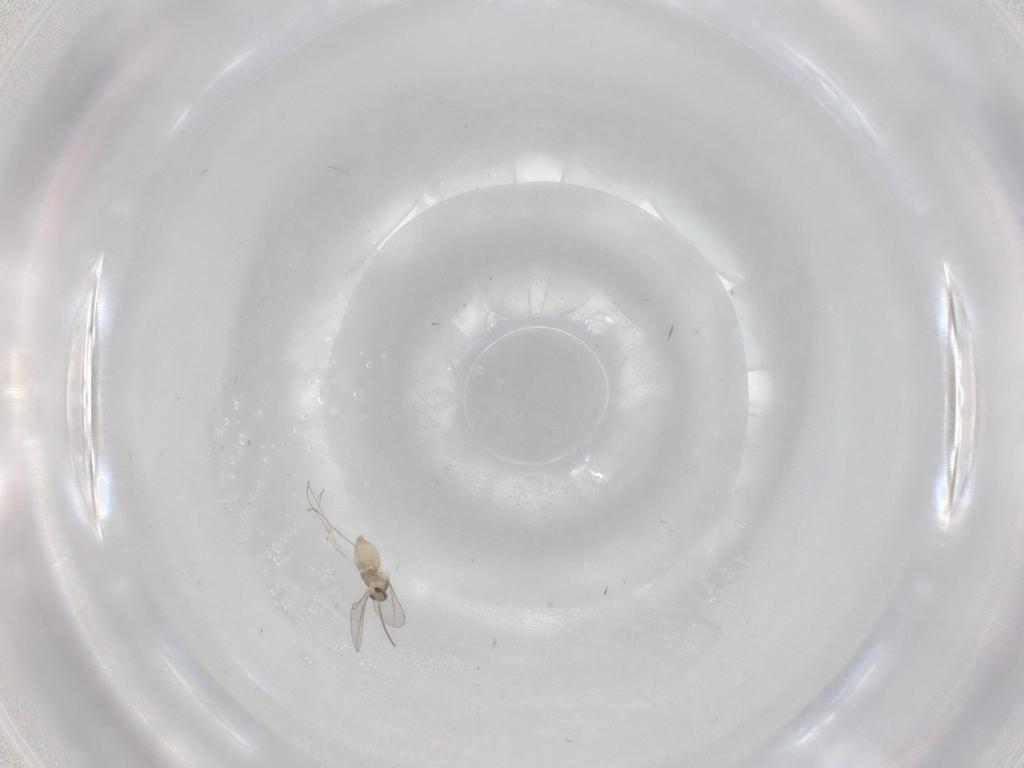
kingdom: Animalia
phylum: Arthropoda
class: Insecta
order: Diptera
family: Cecidomyiidae
